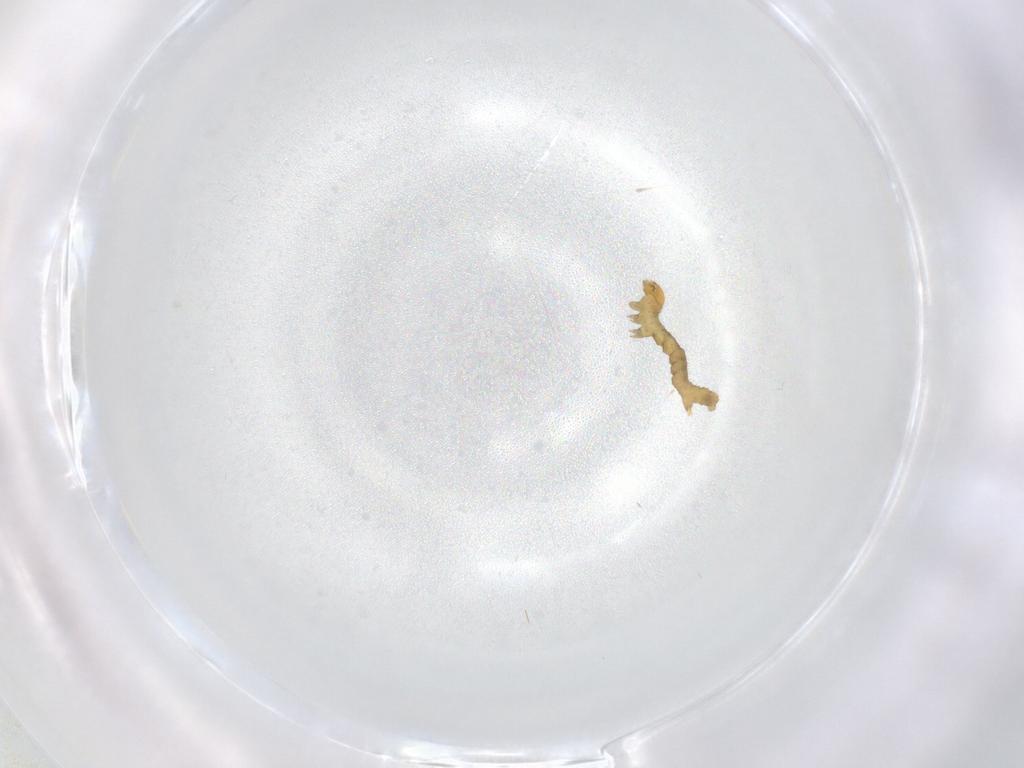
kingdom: Animalia
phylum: Arthropoda
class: Insecta
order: Lepidoptera
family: Geometridae
